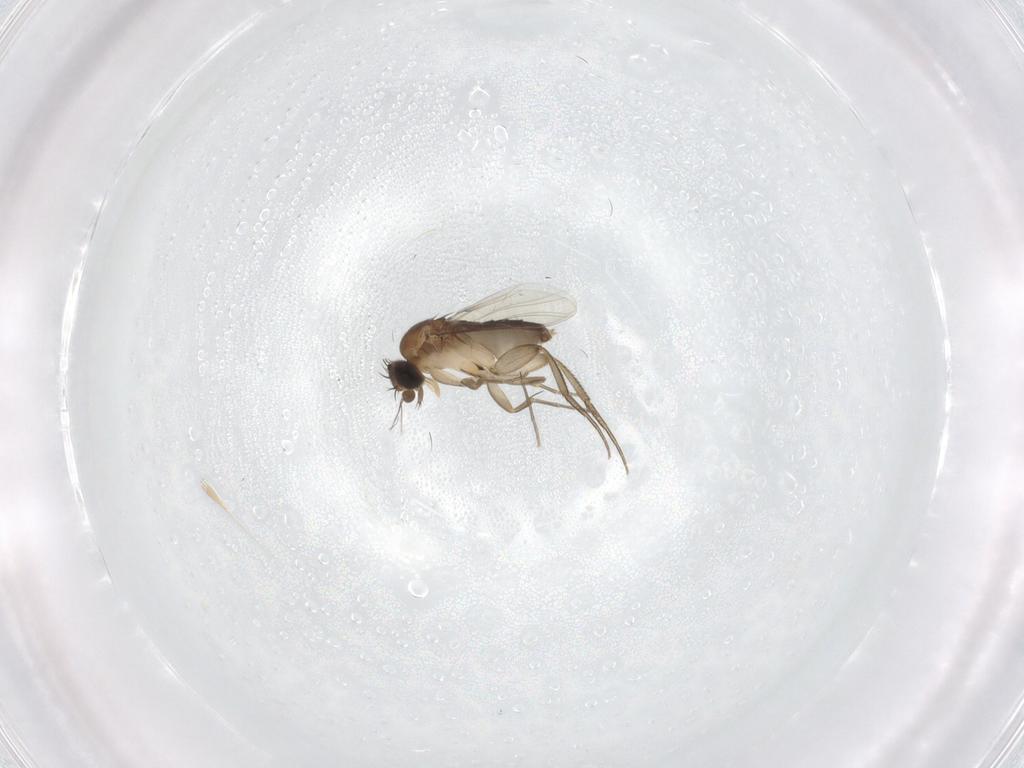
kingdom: Animalia
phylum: Arthropoda
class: Insecta
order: Diptera
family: Phoridae
